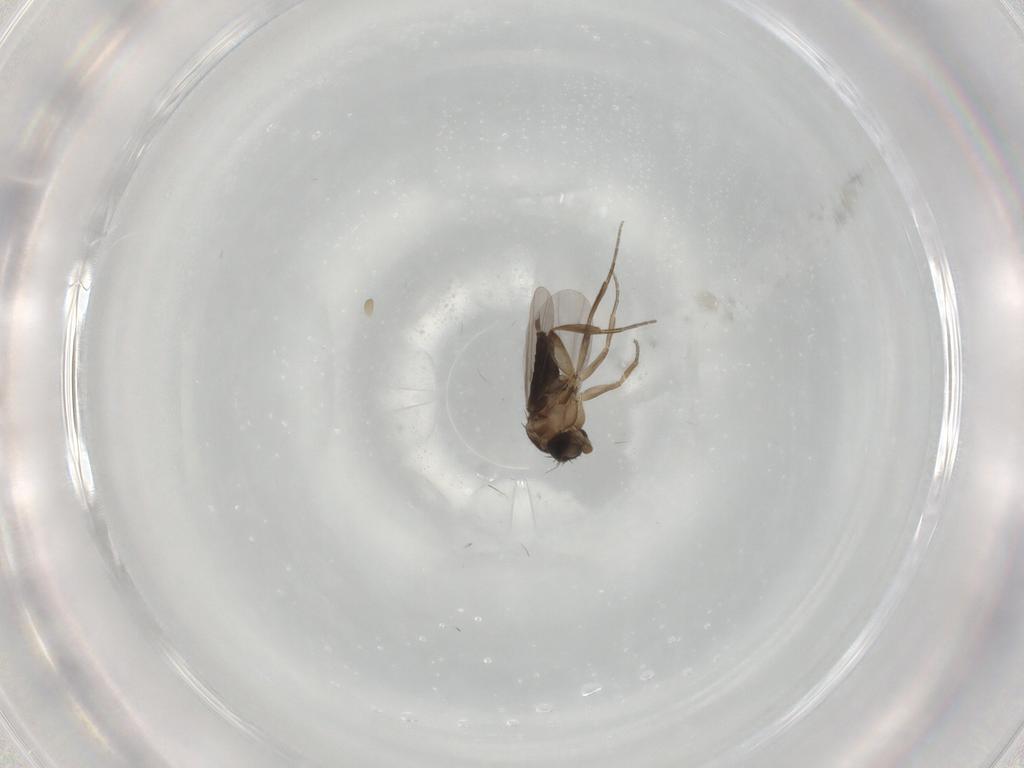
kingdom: Animalia
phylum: Arthropoda
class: Insecta
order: Diptera
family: Phoridae
